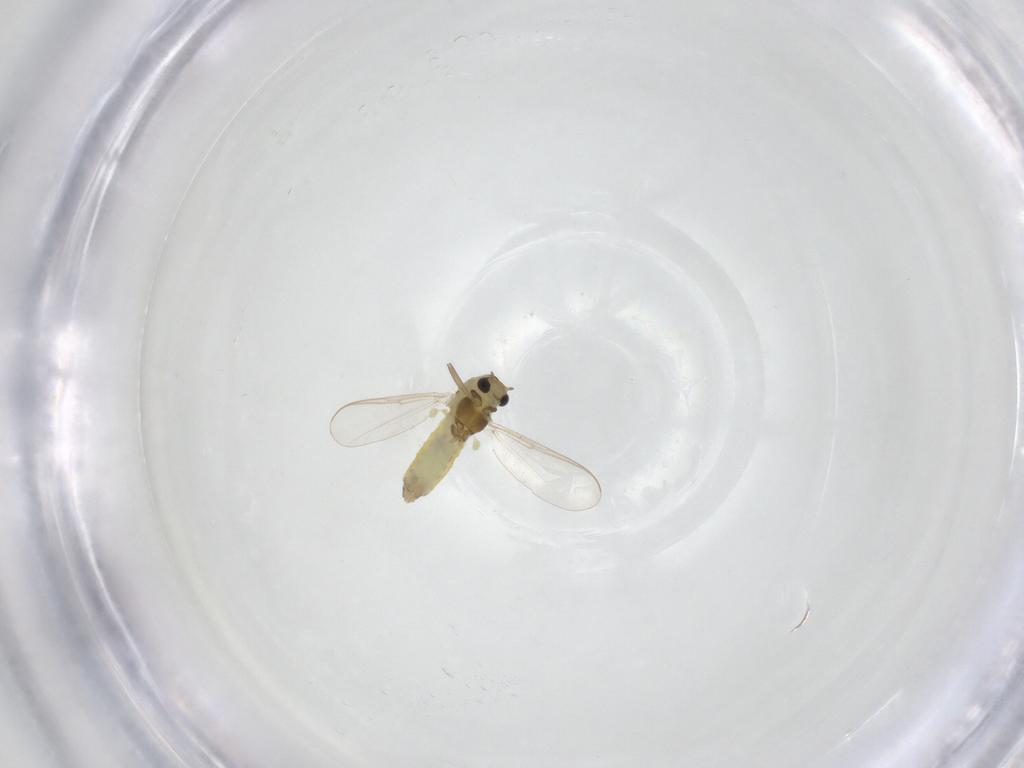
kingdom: Animalia
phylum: Arthropoda
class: Insecta
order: Diptera
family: Chironomidae
